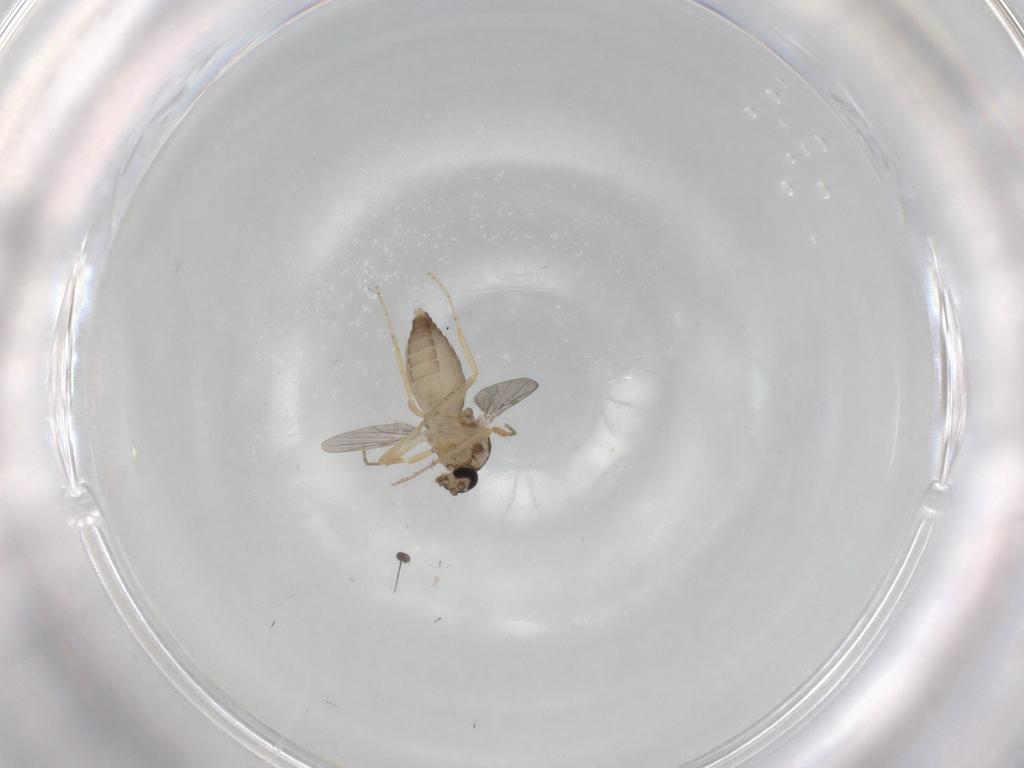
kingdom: Animalia
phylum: Arthropoda
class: Insecta
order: Diptera
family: Ceratopogonidae
